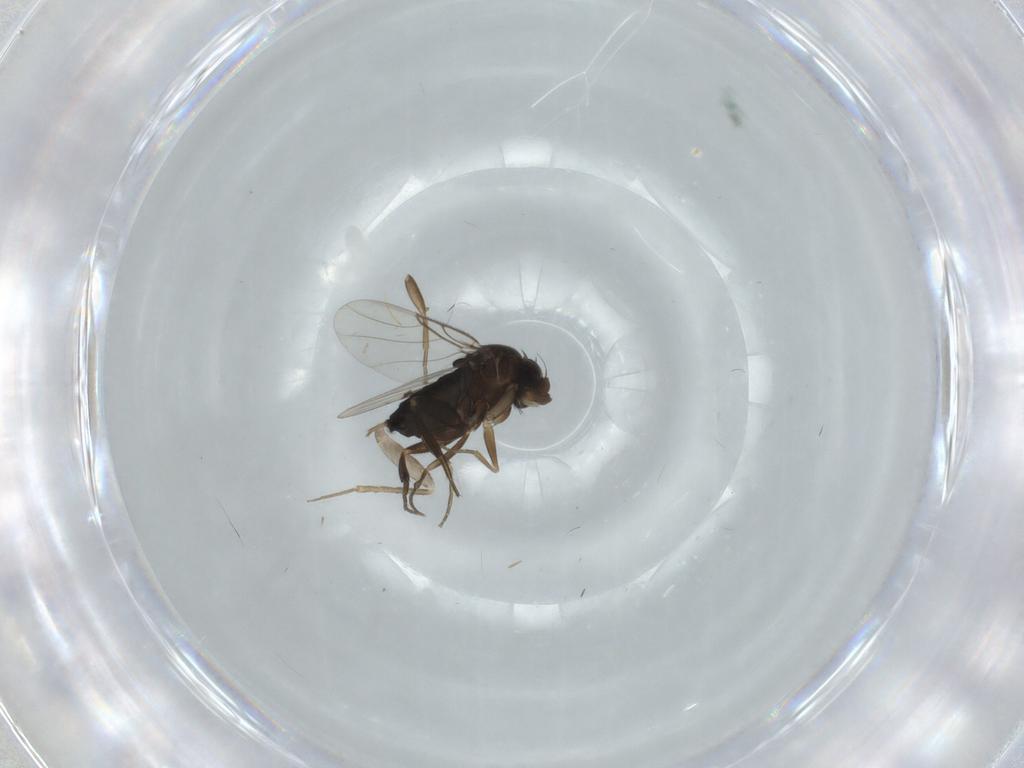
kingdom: Animalia
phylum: Arthropoda
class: Insecta
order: Diptera
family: Phoridae
